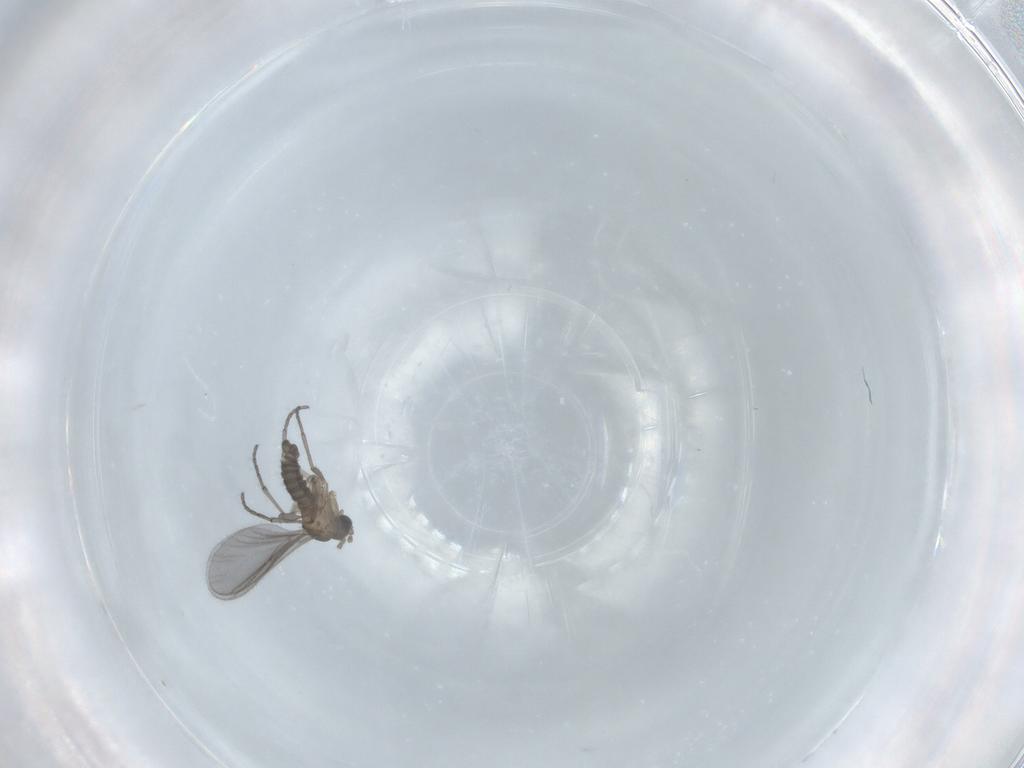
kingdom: Animalia
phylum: Arthropoda
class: Insecta
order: Diptera
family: Sciaridae
